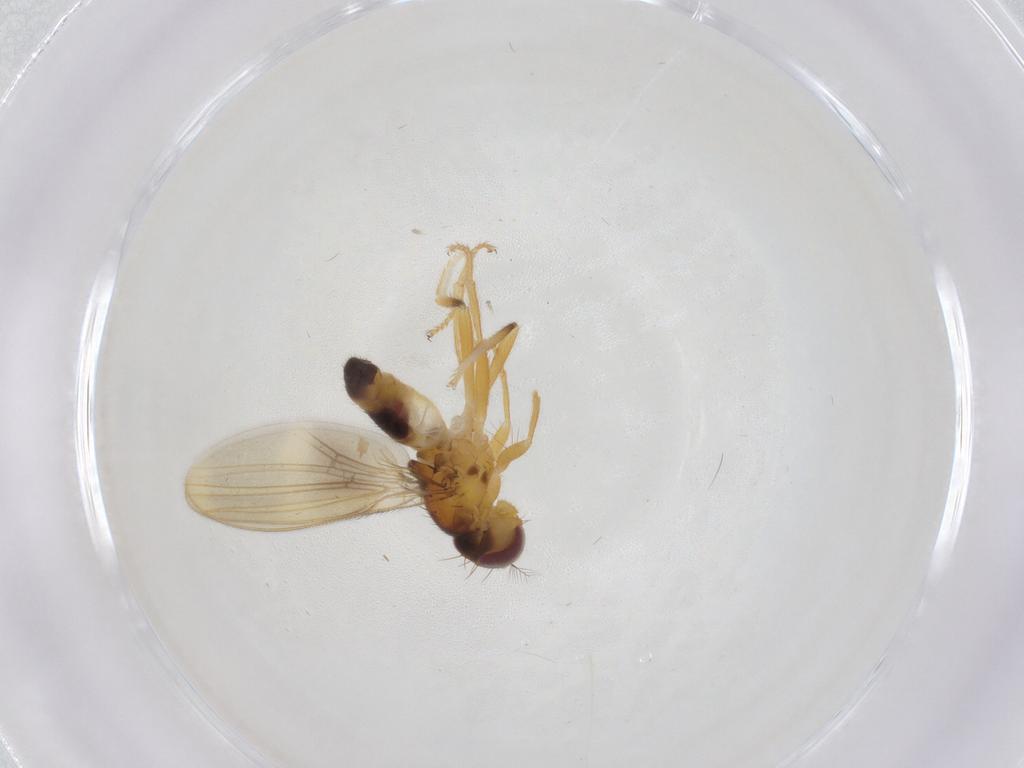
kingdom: Animalia
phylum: Arthropoda
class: Insecta
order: Diptera
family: Periscelididae
